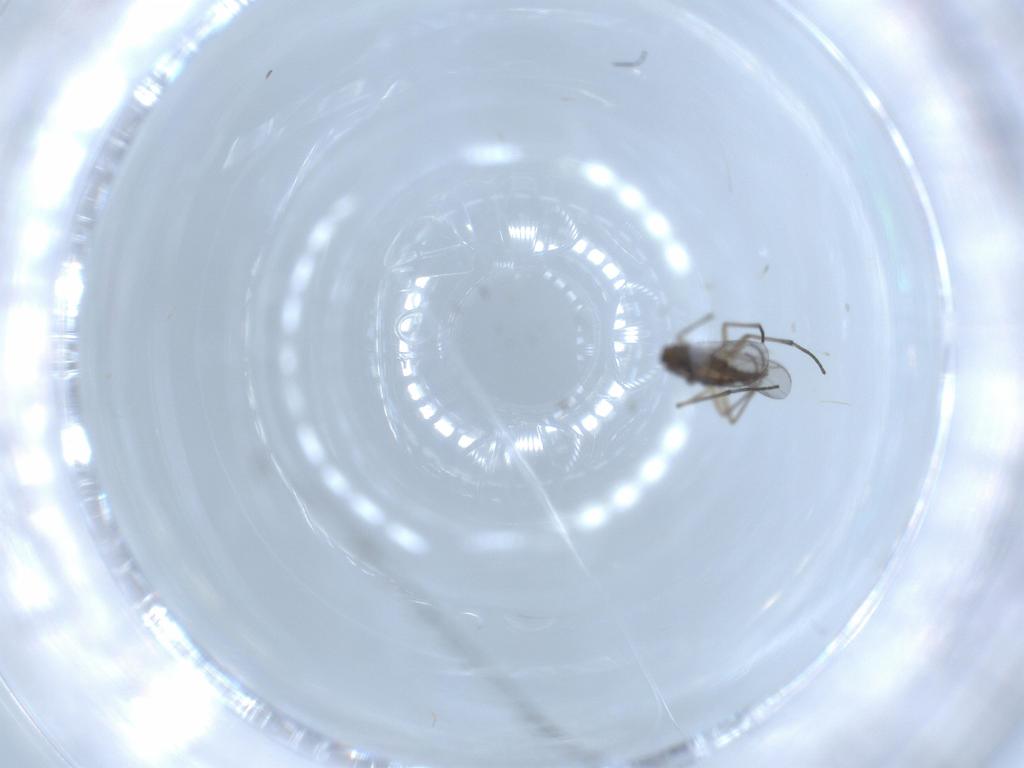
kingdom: Animalia
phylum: Arthropoda
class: Insecta
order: Diptera
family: Sciaridae
